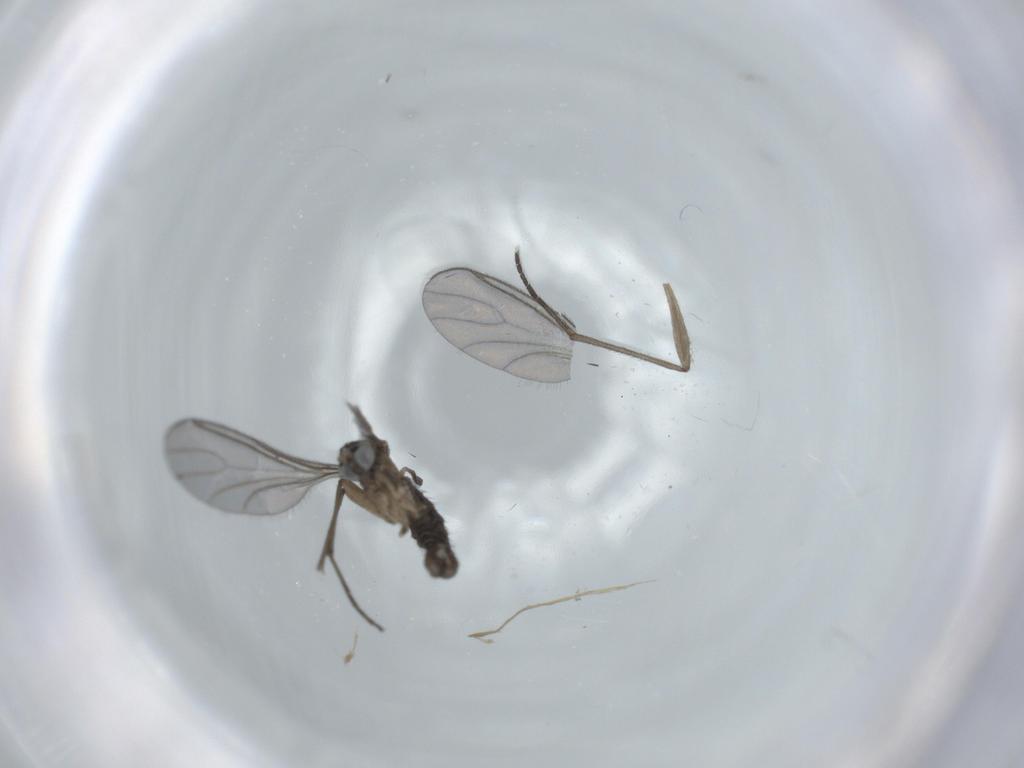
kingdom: Animalia
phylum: Arthropoda
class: Insecta
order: Diptera
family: Sciaridae
